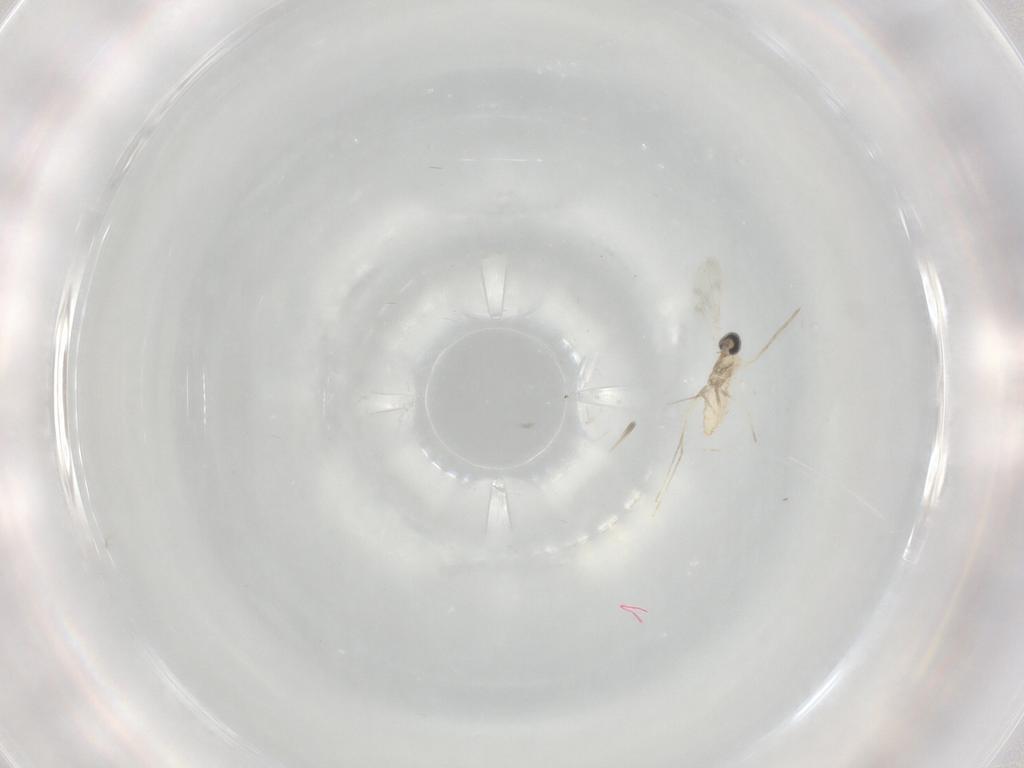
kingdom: Animalia
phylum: Arthropoda
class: Insecta
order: Diptera
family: Cecidomyiidae
